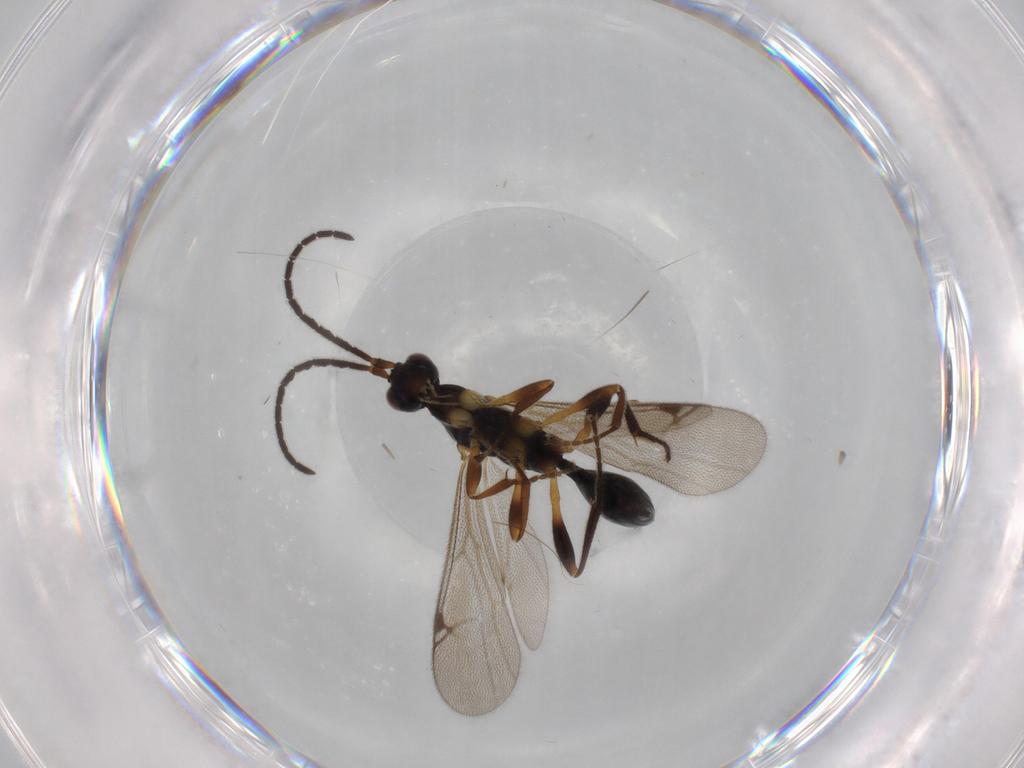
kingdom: Animalia
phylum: Arthropoda
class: Insecta
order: Hymenoptera
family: Proctotrupidae
